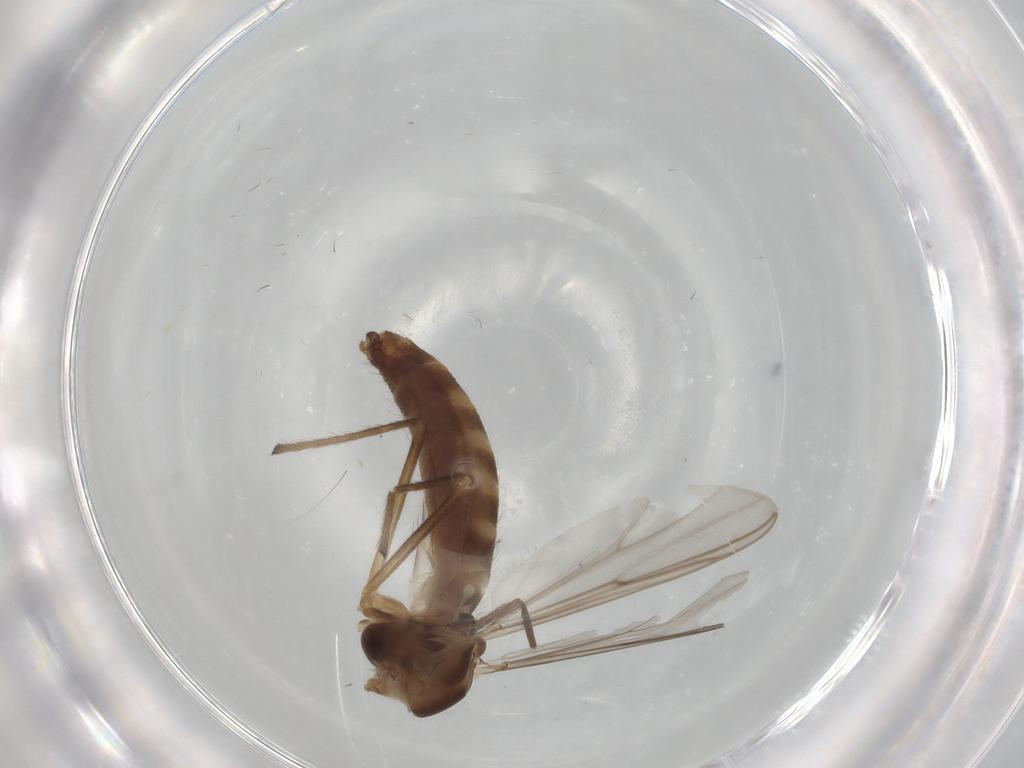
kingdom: Animalia
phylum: Arthropoda
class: Insecta
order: Diptera
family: Chironomidae
